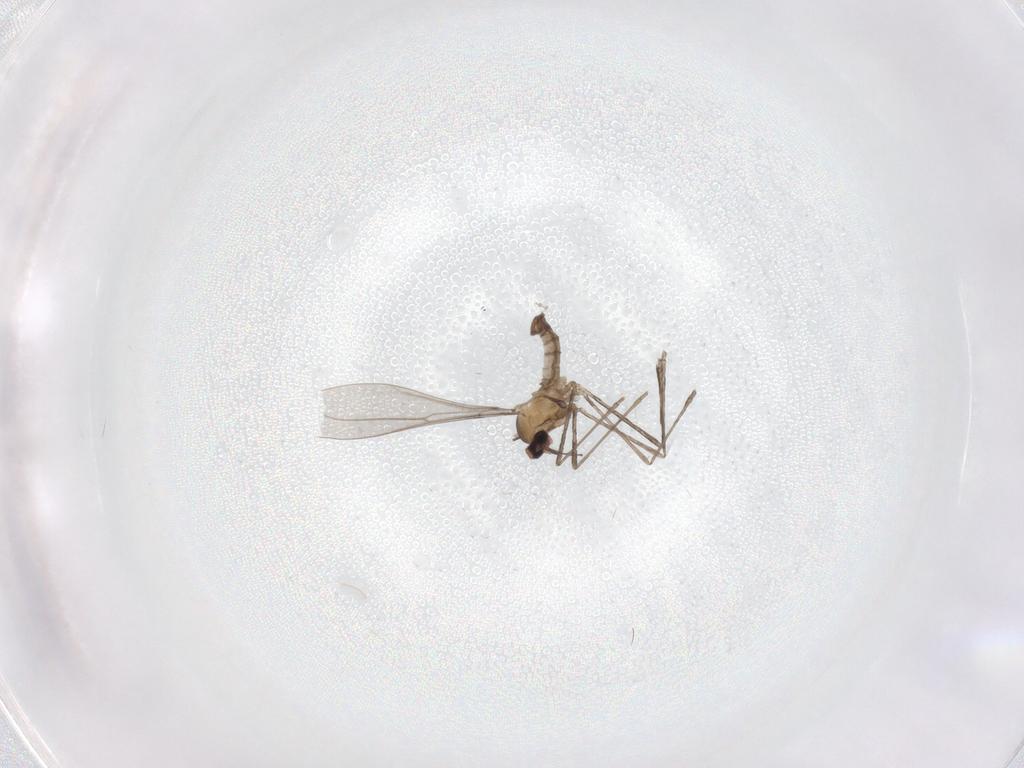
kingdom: Animalia
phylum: Arthropoda
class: Insecta
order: Diptera
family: Cecidomyiidae
